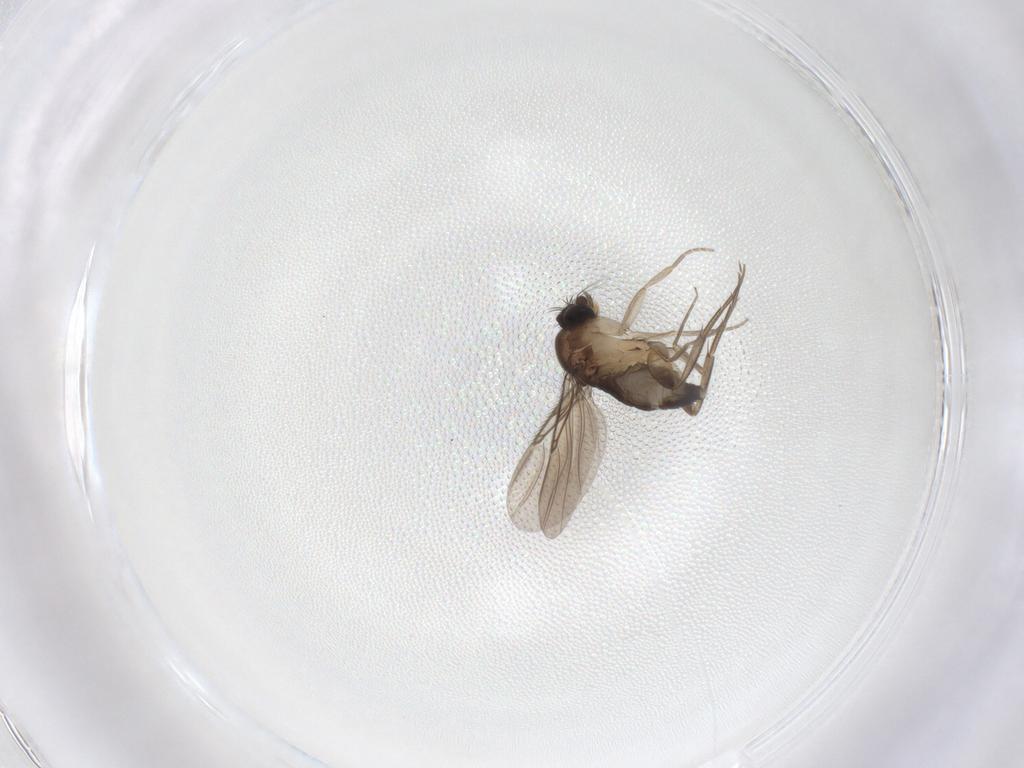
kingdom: Animalia
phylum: Arthropoda
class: Insecta
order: Diptera
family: Phoridae
